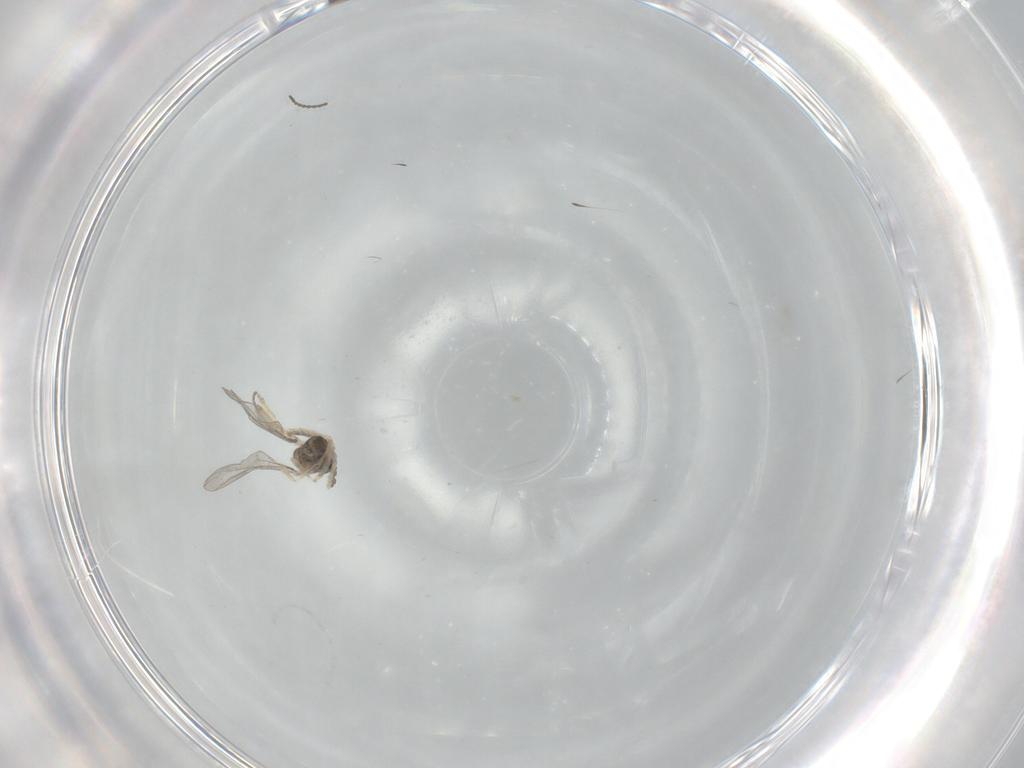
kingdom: Animalia
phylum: Arthropoda
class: Insecta
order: Diptera
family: Cecidomyiidae
